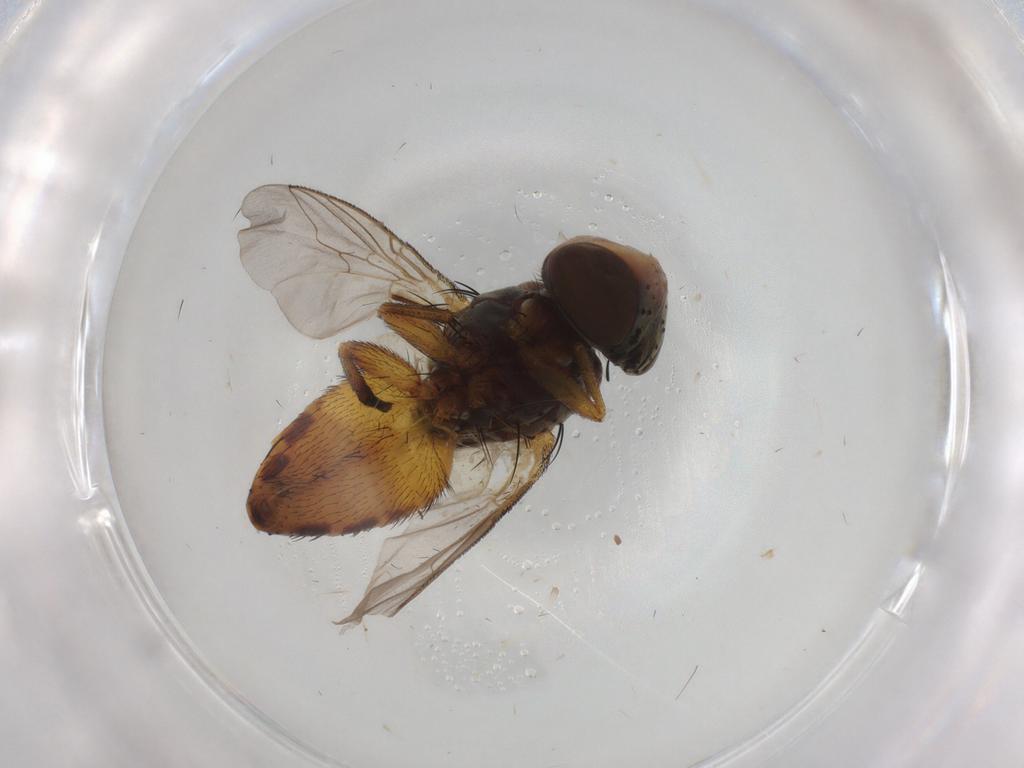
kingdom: Animalia
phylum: Arthropoda
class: Insecta
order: Diptera
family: Sarcophagidae
